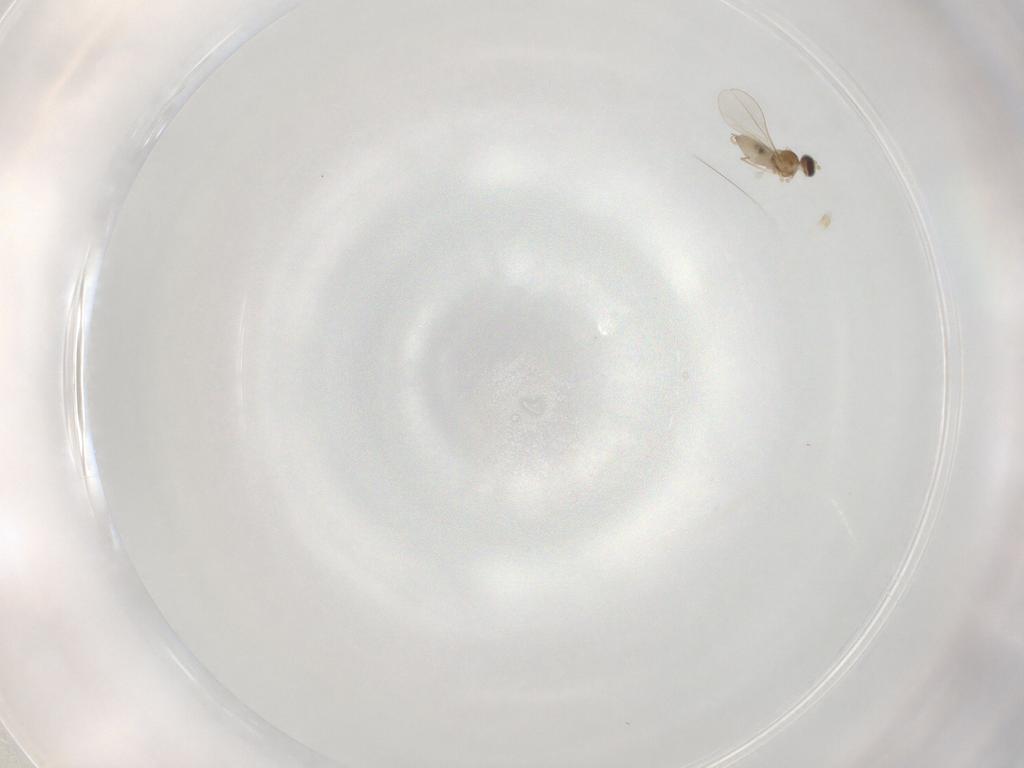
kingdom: Animalia
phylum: Arthropoda
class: Insecta
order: Diptera
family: Cecidomyiidae
